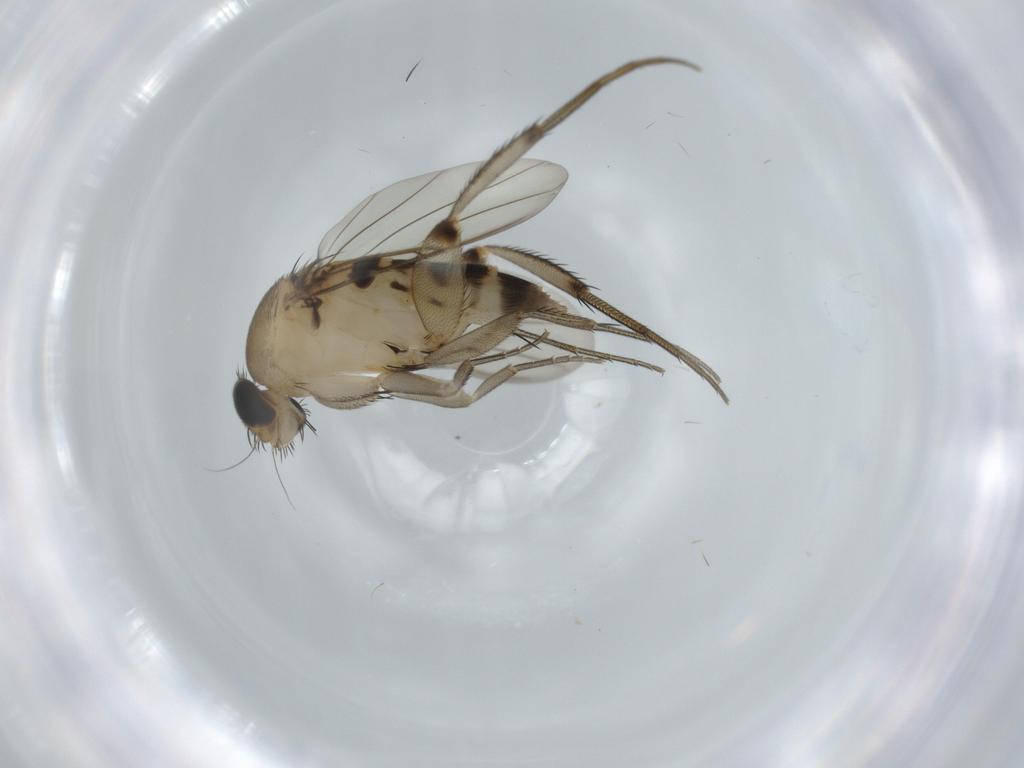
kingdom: Animalia
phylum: Arthropoda
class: Insecta
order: Diptera
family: Phoridae
